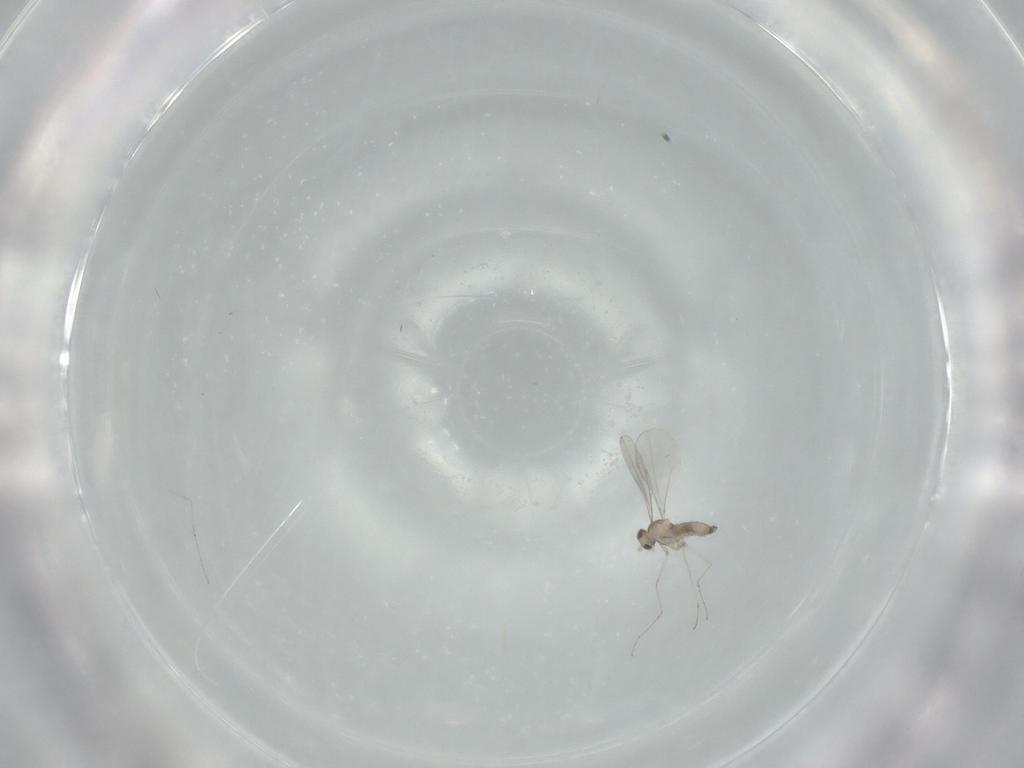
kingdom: Animalia
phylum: Arthropoda
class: Insecta
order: Diptera
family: Cecidomyiidae
